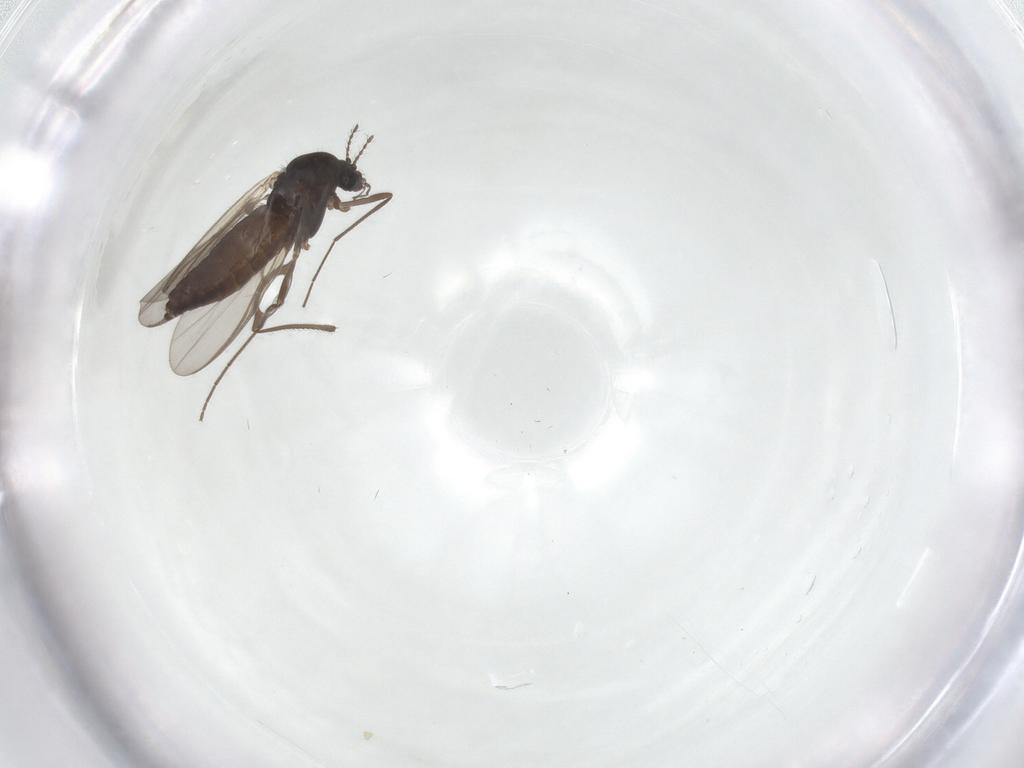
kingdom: Animalia
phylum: Arthropoda
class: Insecta
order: Diptera
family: Chironomidae
